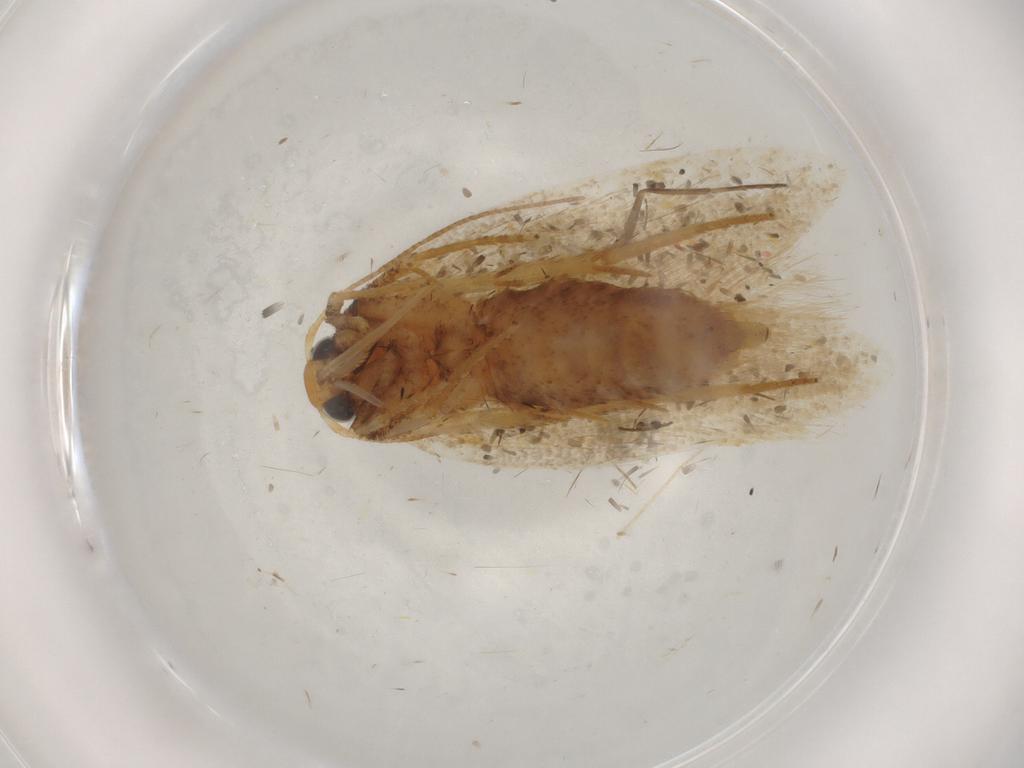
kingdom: Animalia
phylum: Arthropoda
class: Insecta
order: Lepidoptera
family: Gelechiidae
